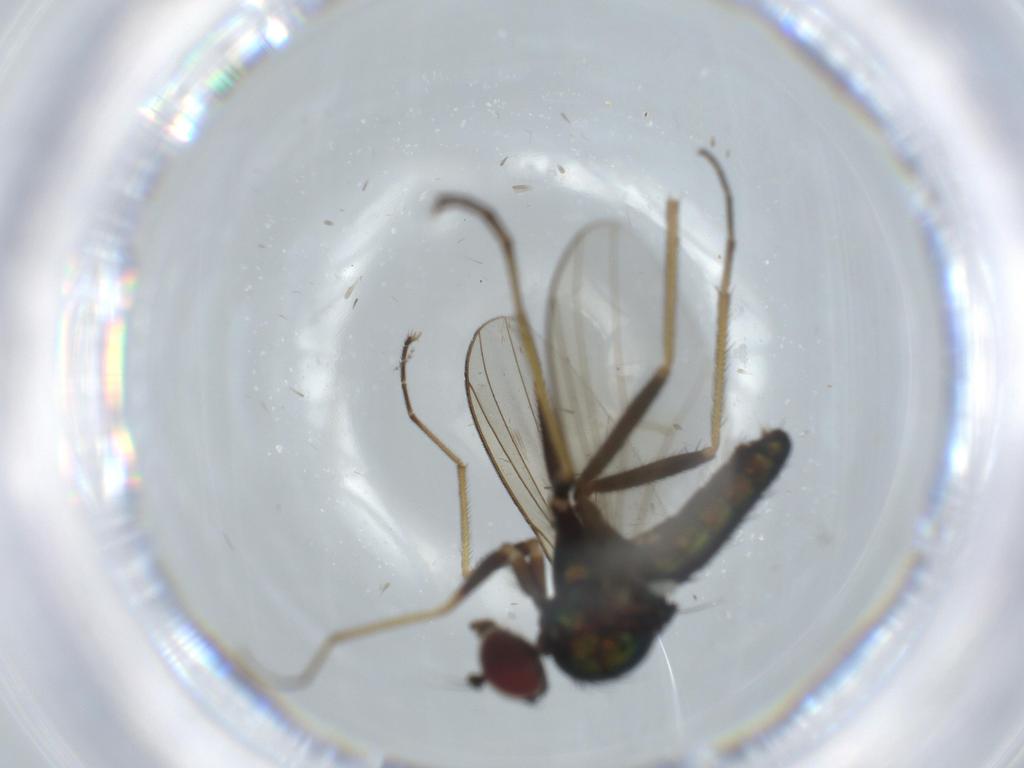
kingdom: Animalia
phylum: Arthropoda
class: Insecta
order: Diptera
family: Dolichopodidae
